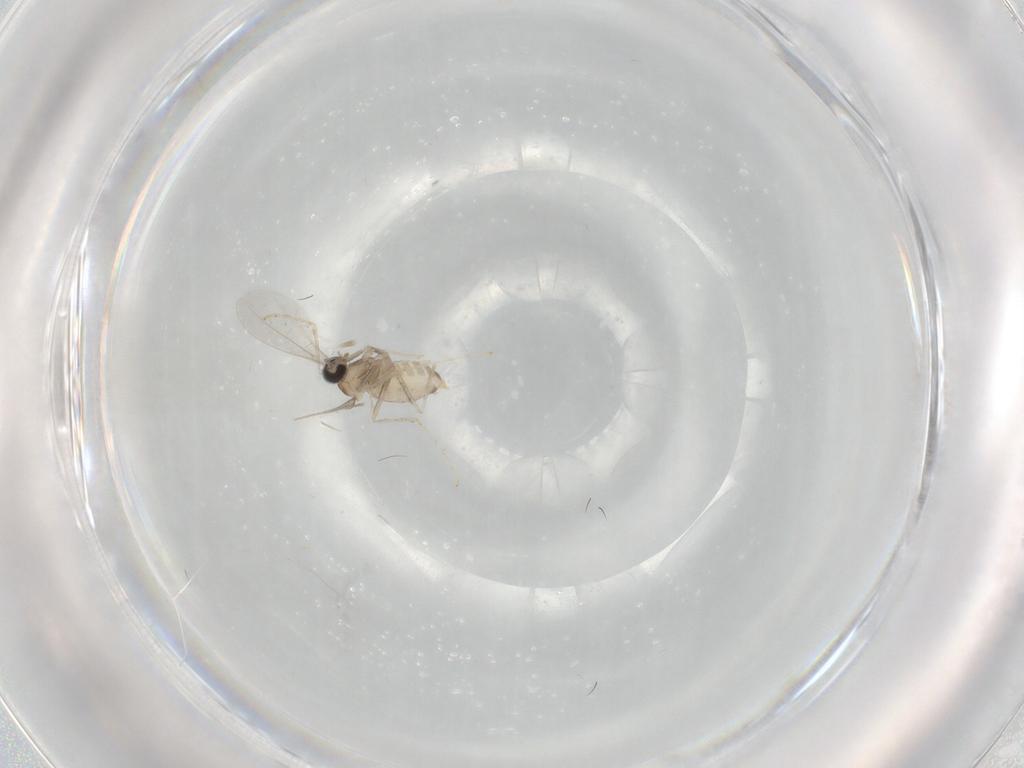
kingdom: Animalia
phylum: Arthropoda
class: Insecta
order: Diptera
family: Cecidomyiidae
